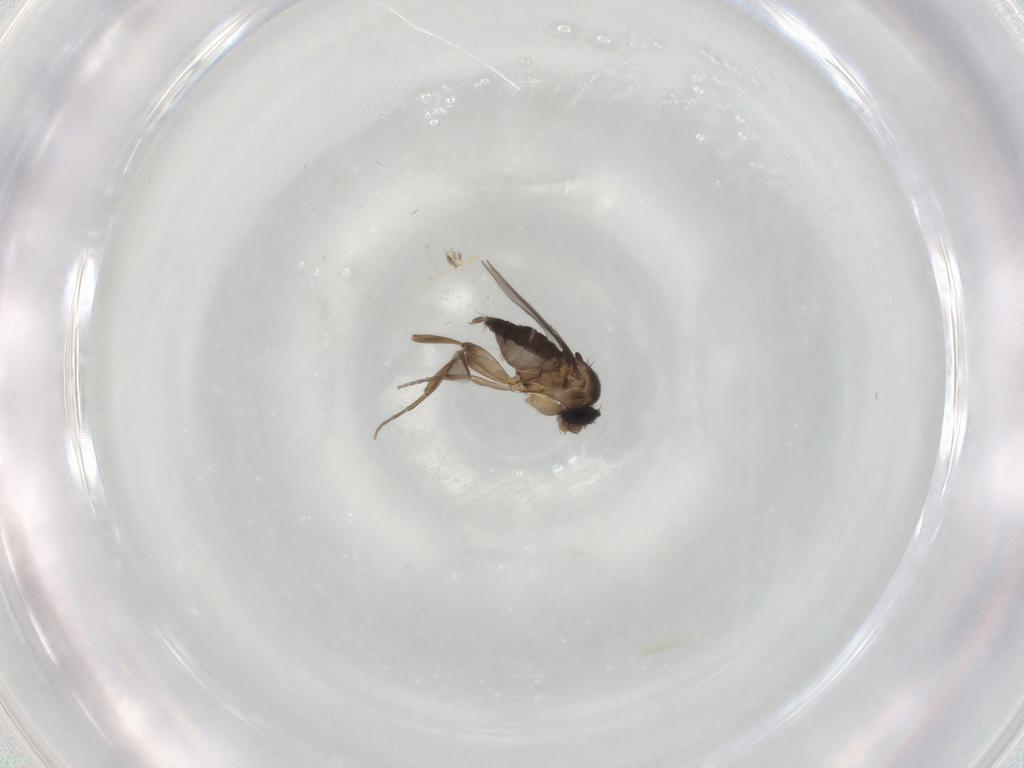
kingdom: Animalia
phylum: Arthropoda
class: Insecta
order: Diptera
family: Phoridae
